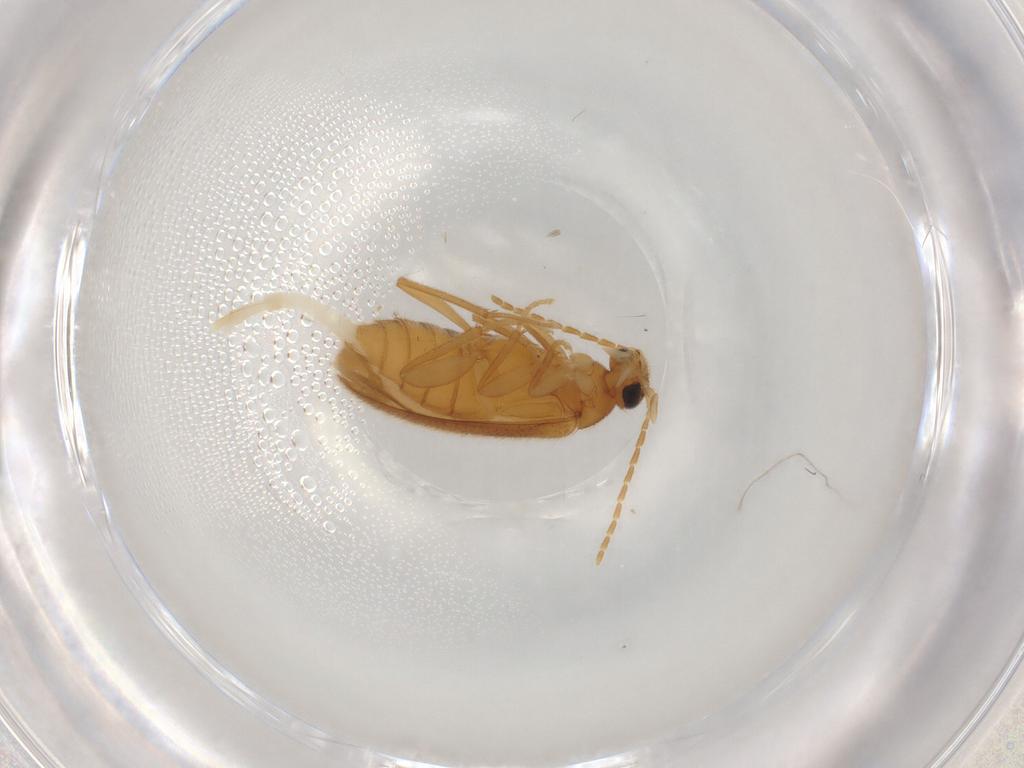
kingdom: Animalia
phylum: Arthropoda
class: Insecta
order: Coleoptera
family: Scraptiidae
